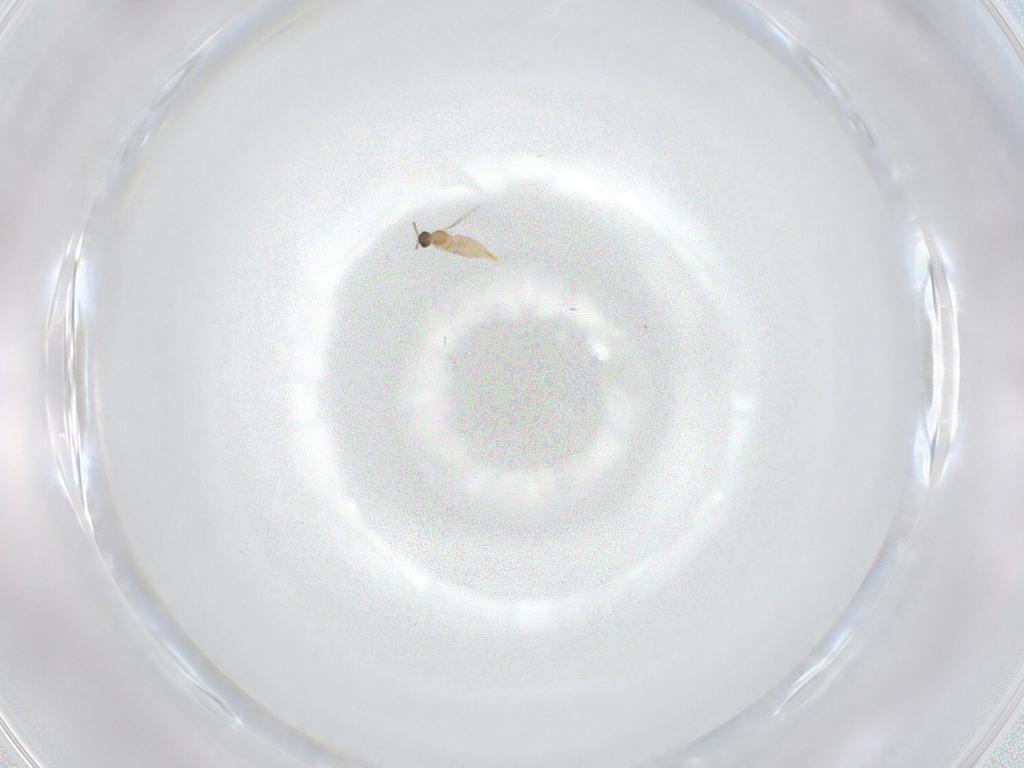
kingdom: Animalia
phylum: Arthropoda
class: Insecta
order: Diptera
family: Cecidomyiidae
